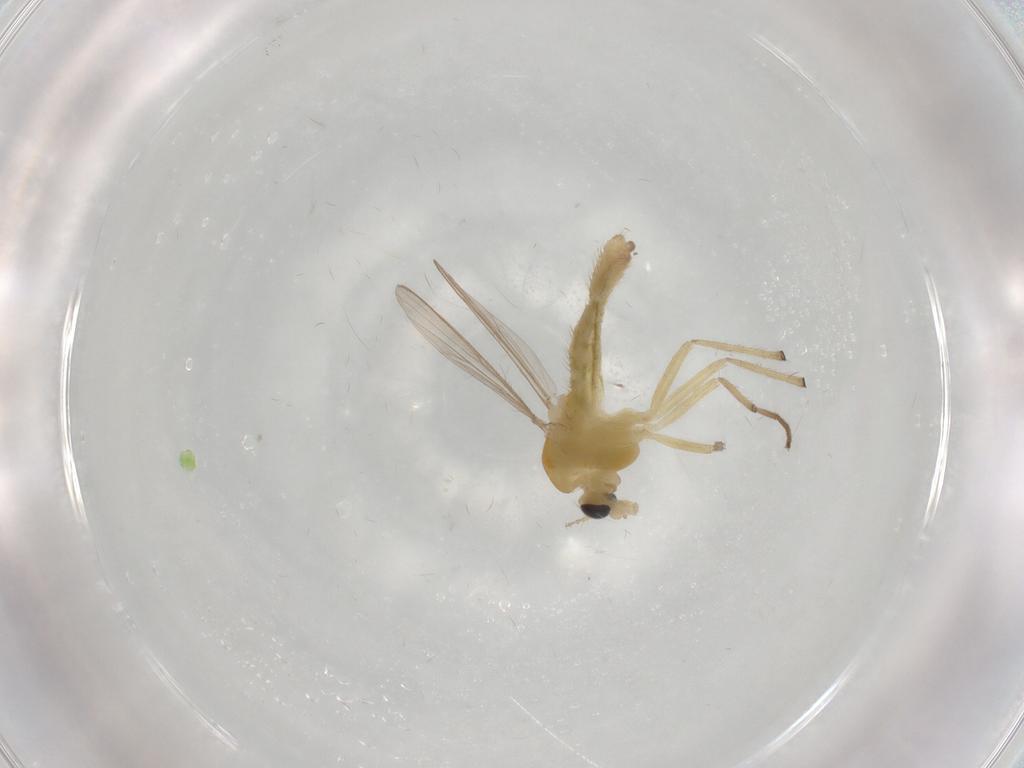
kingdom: Animalia
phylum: Arthropoda
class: Insecta
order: Diptera
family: Chironomidae
